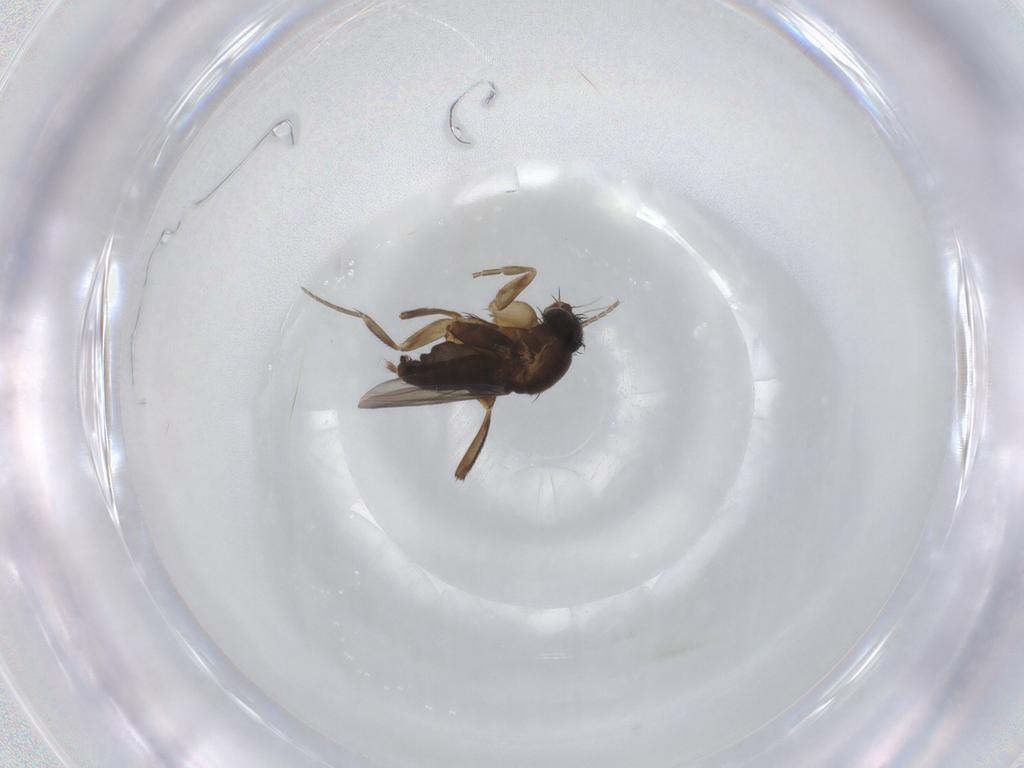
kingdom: Animalia
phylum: Arthropoda
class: Insecta
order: Diptera
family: Phoridae
